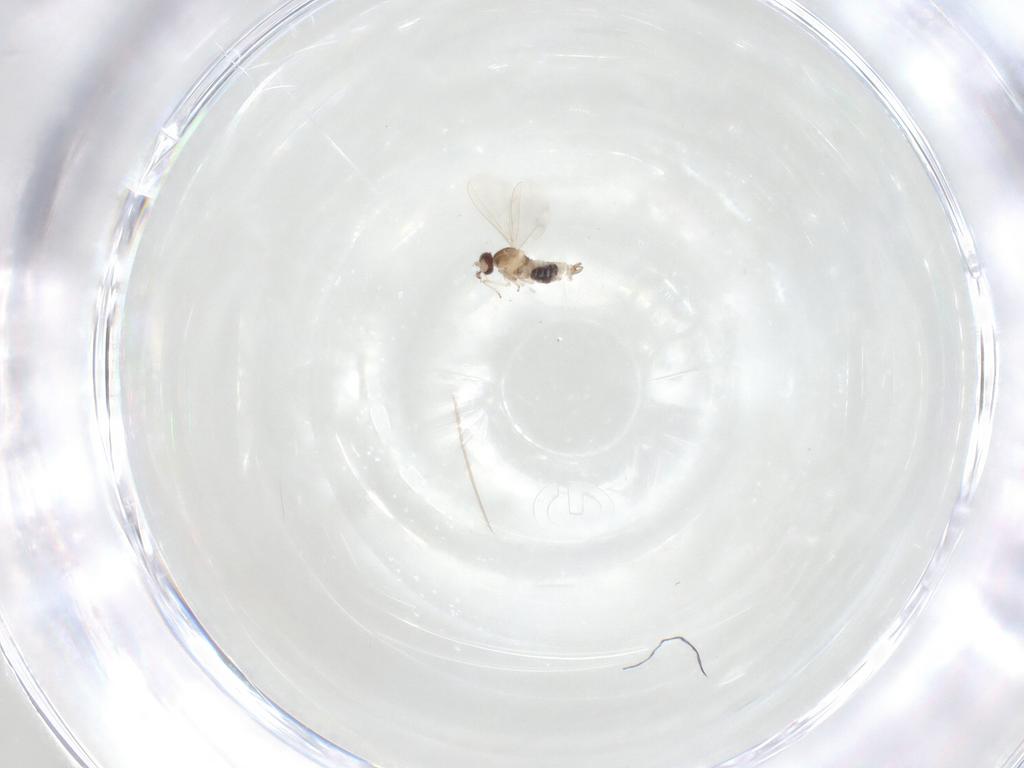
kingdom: Animalia
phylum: Arthropoda
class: Insecta
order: Diptera
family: Cecidomyiidae
